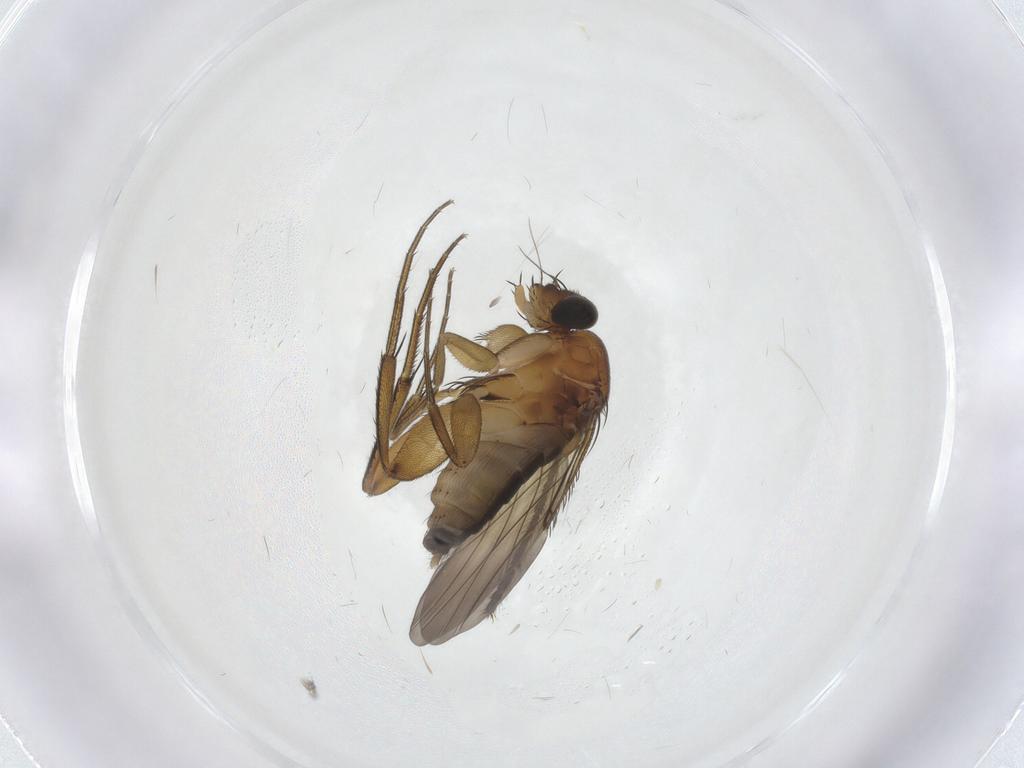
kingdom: Animalia
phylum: Arthropoda
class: Insecta
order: Diptera
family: Phoridae
